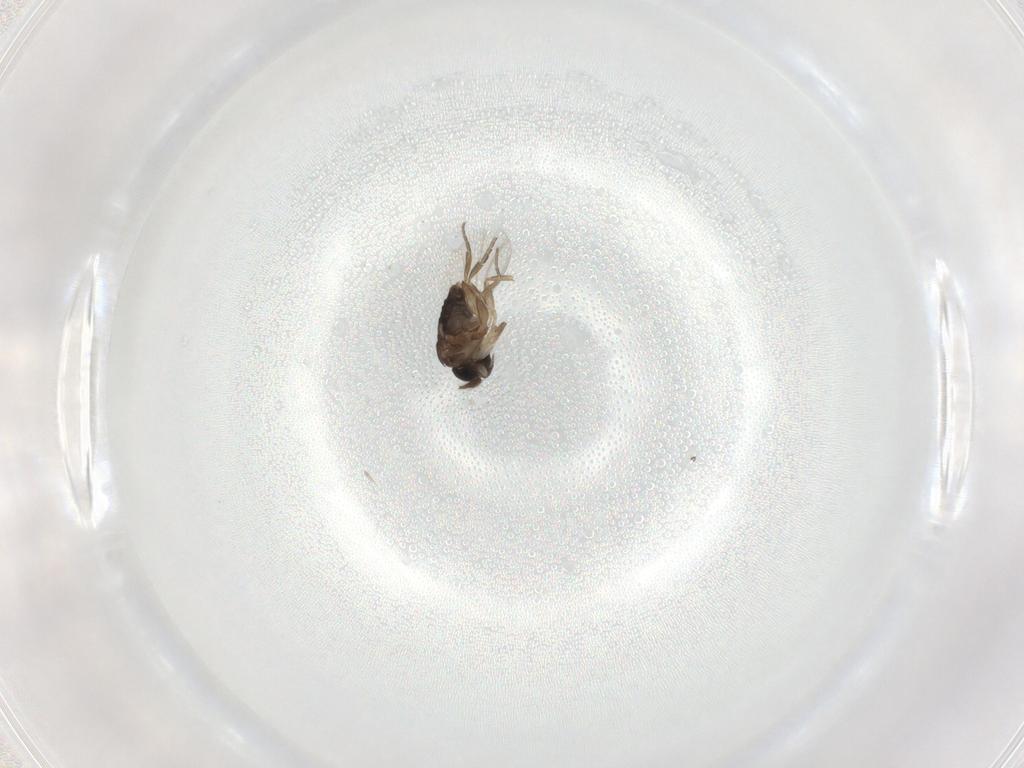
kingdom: Animalia
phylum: Arthropoda
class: Insecta
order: Diptera
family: Phoridae
